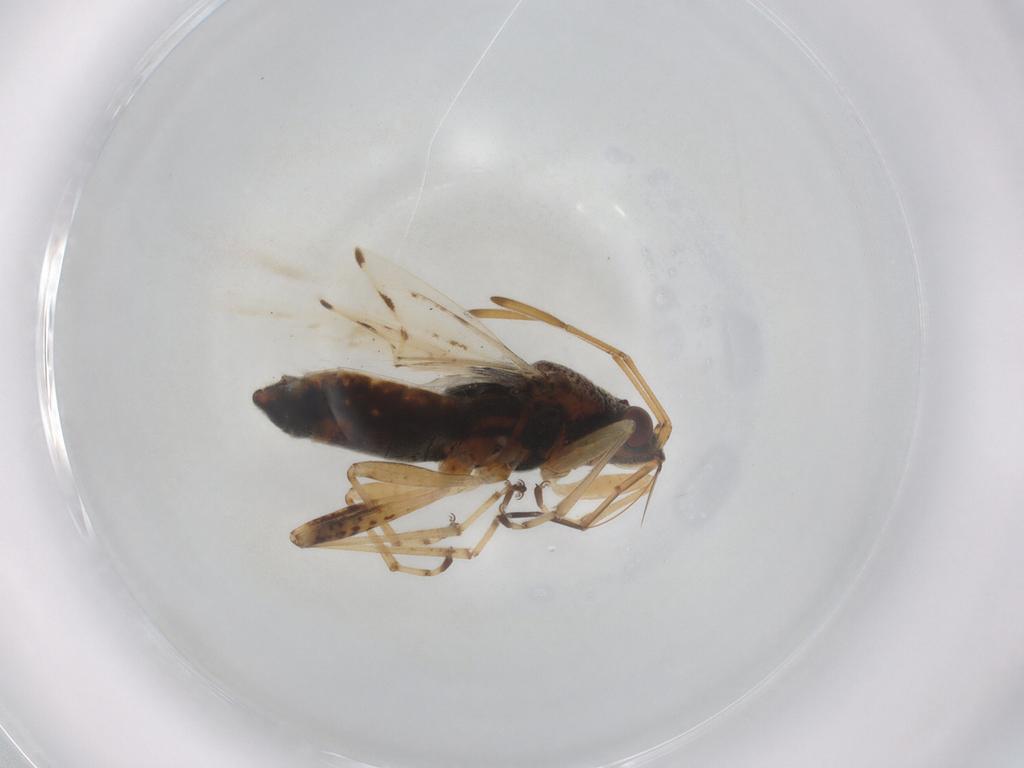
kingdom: Animalia
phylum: Arthropoda
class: Insecta
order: Hemiptera
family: Lygaeidae
